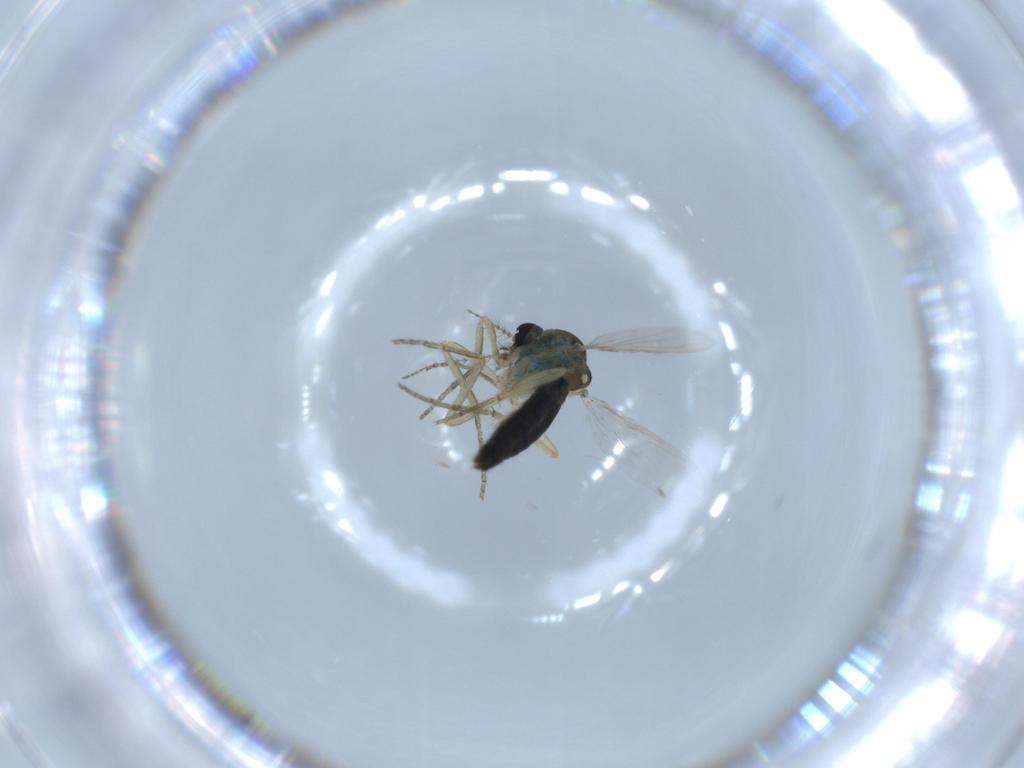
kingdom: Animalia
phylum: Arthropoda
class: Insecta
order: Diptera
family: Ceratopogonidae
